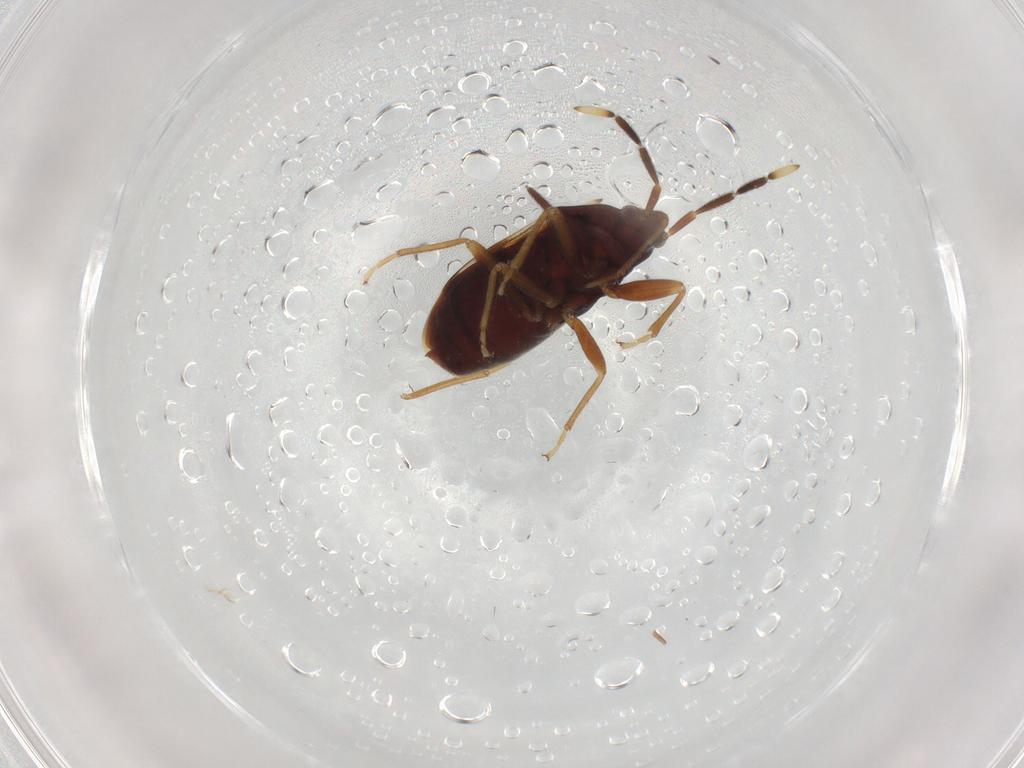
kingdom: Animalia
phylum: Arthropoda
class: Insecta
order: Hemiptera
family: Rhyparochromidae
